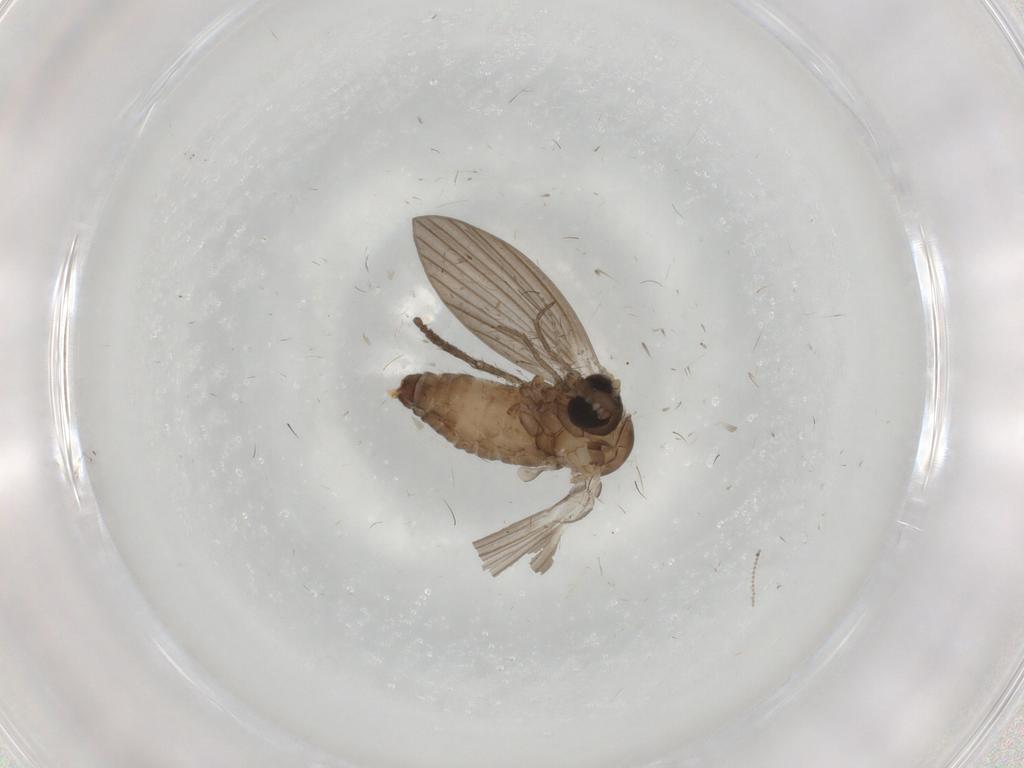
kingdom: Animalia
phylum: Arthropoda
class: Insecta
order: Diptera
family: Psychodidae
